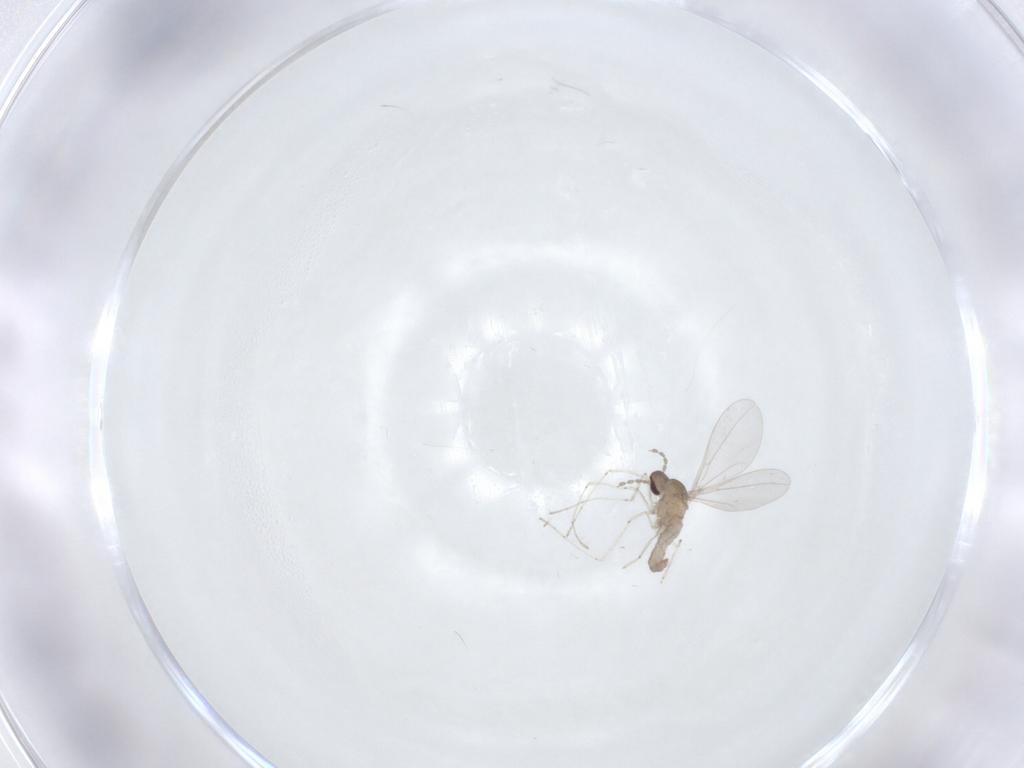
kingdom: Animalia
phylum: Arthropoda
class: Insecta
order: Diptera
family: Cecidomyiidae
